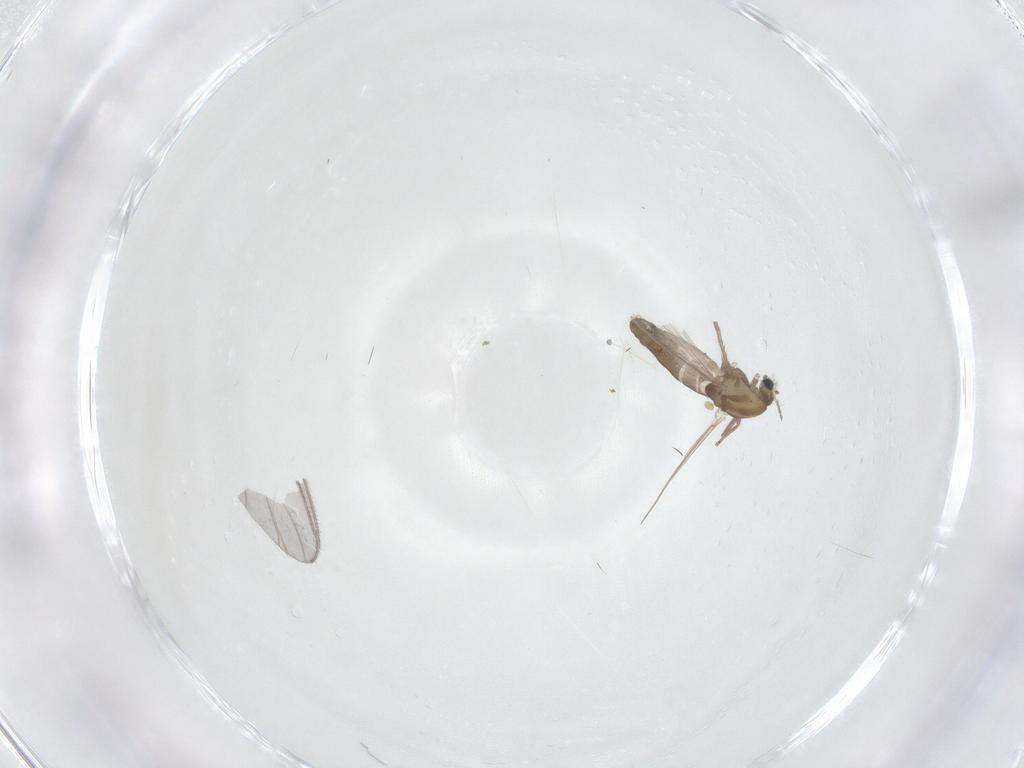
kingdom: Animalia
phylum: Arthropoda
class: Insecta
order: Diptera
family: Chironomidae
